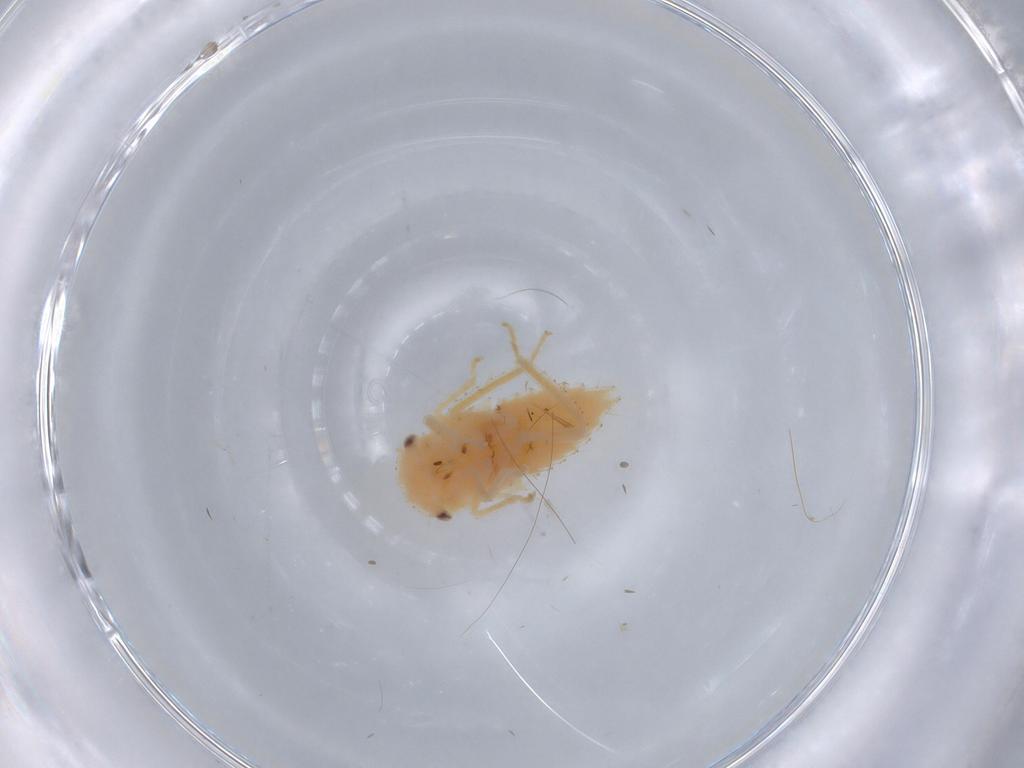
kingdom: Animalia
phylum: Arthropoda
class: Insecta
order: Hemiptera
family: Cicadellidae
